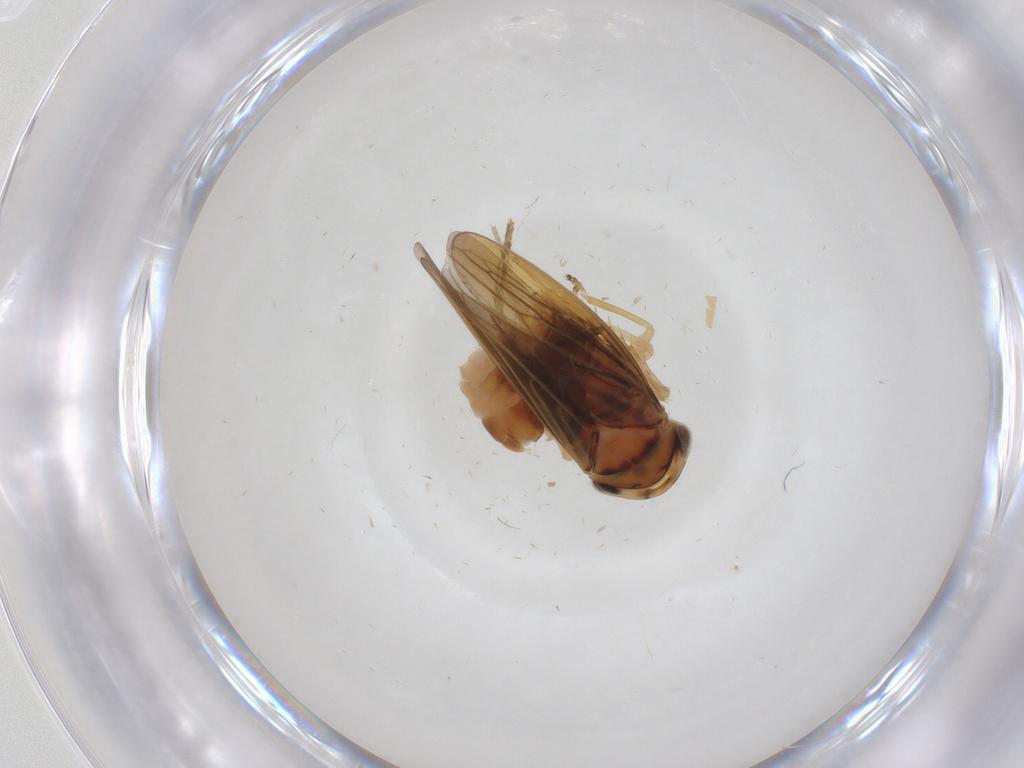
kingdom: Animalia
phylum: Arthropoda
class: Insecta
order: Hemiptera
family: Cicadellidae
